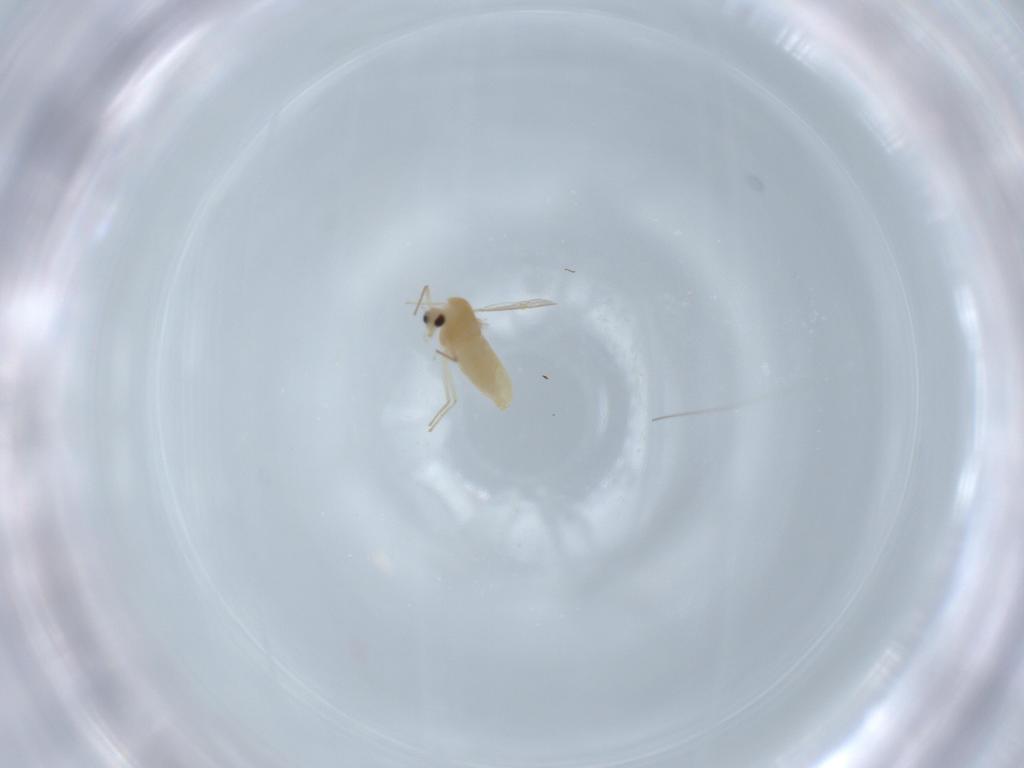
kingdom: Animalia
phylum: Arthropoda
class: Insecta
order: Diptera
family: Chironomidae
